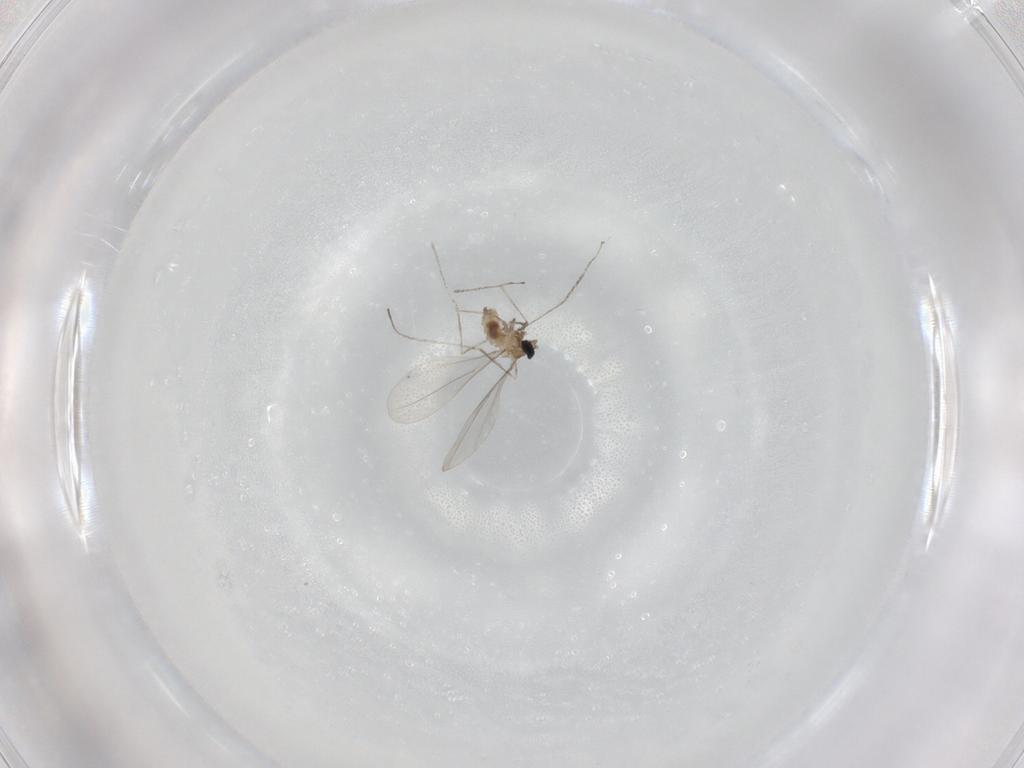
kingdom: Animalia
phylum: Arthropoda
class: Insecta
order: Diptera
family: Cecidomyiidae
